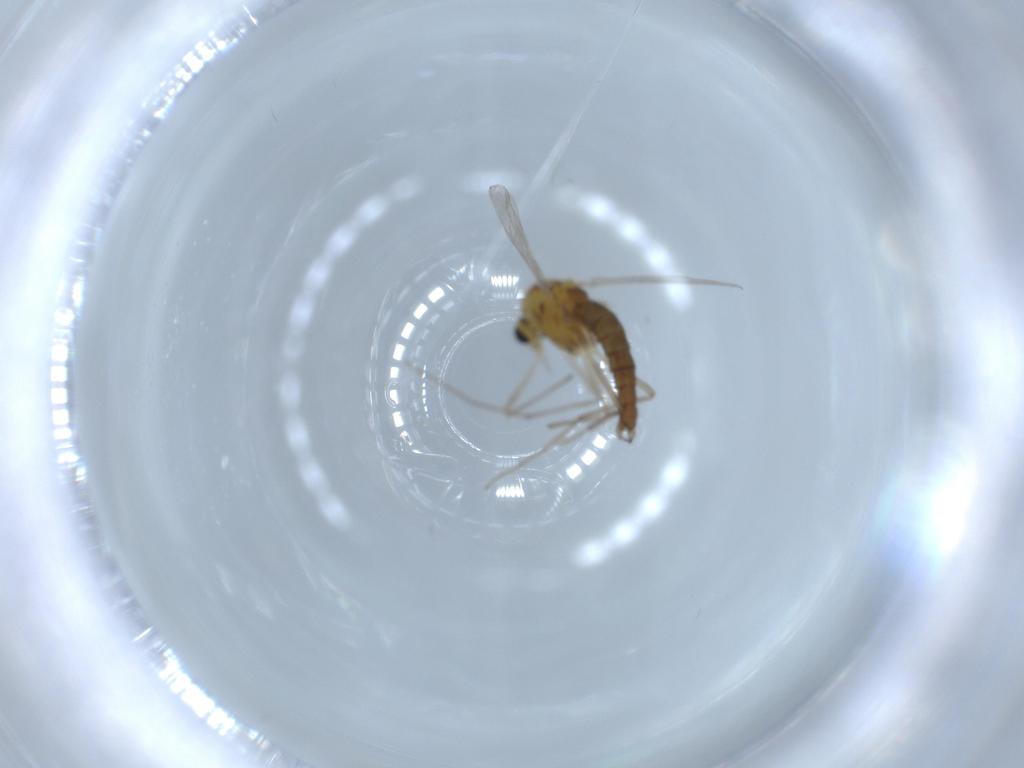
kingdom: Animalia
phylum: Arthropoda
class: Insecta
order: Diptera
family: Chironomidae
